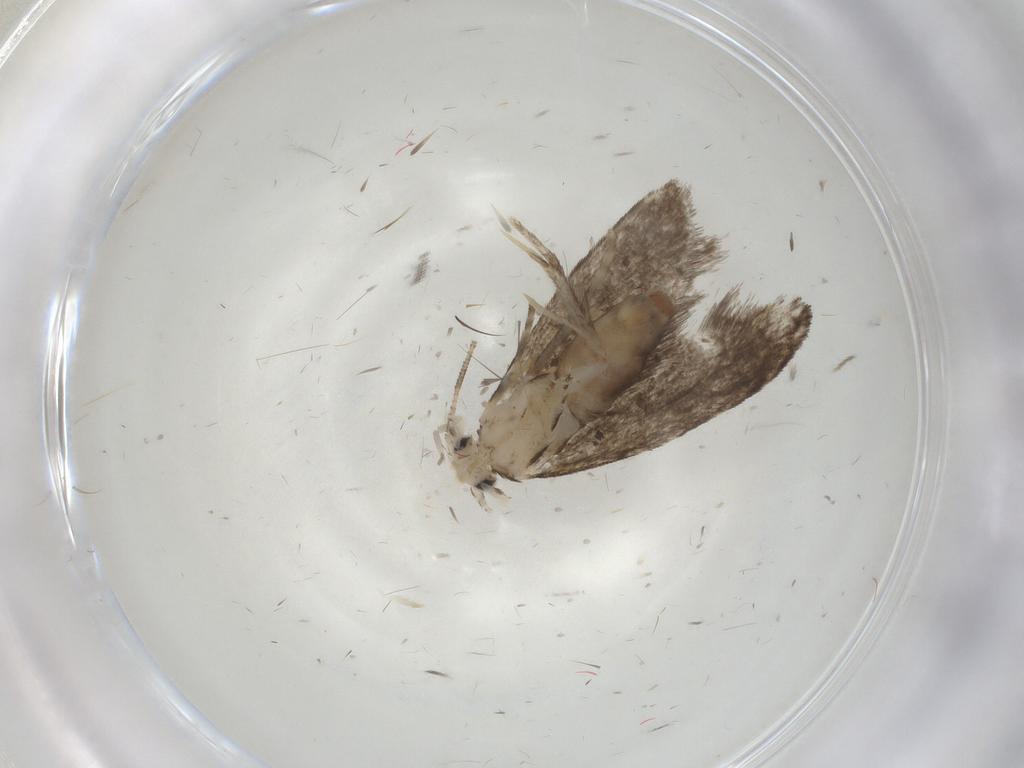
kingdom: Animalia
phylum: Arthropoda
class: Insecta
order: Lepidoptera
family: Tineidae
